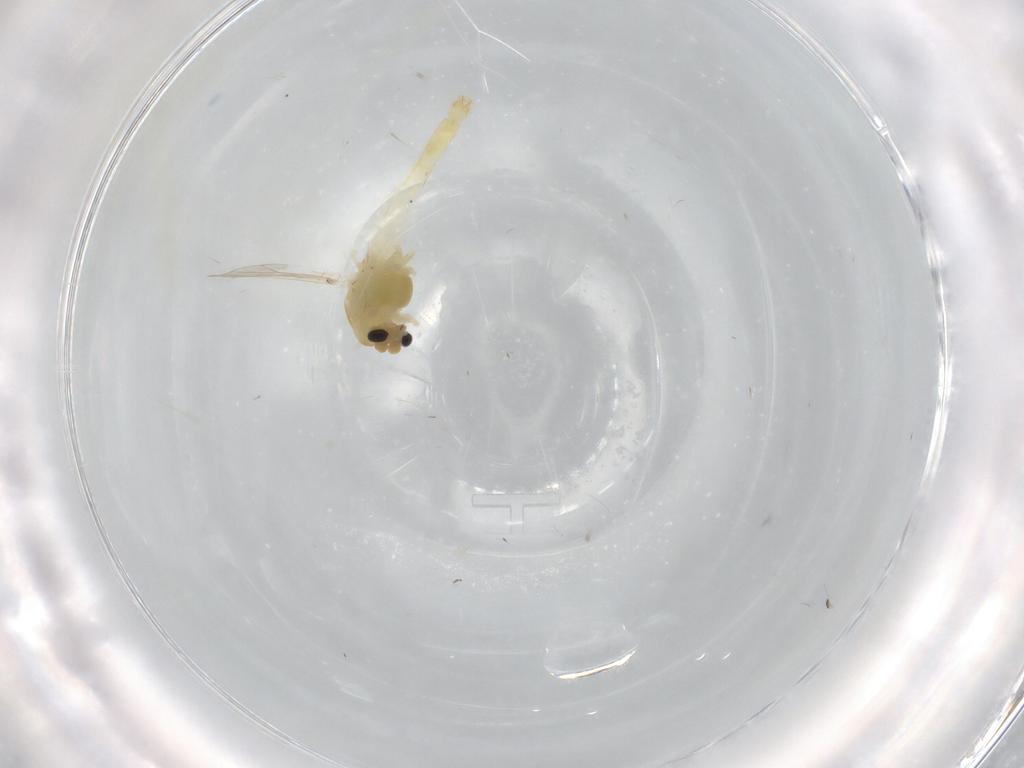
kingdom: Animalia
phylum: Arthropoda
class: Insecta
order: Diptera
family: Chironomidae
